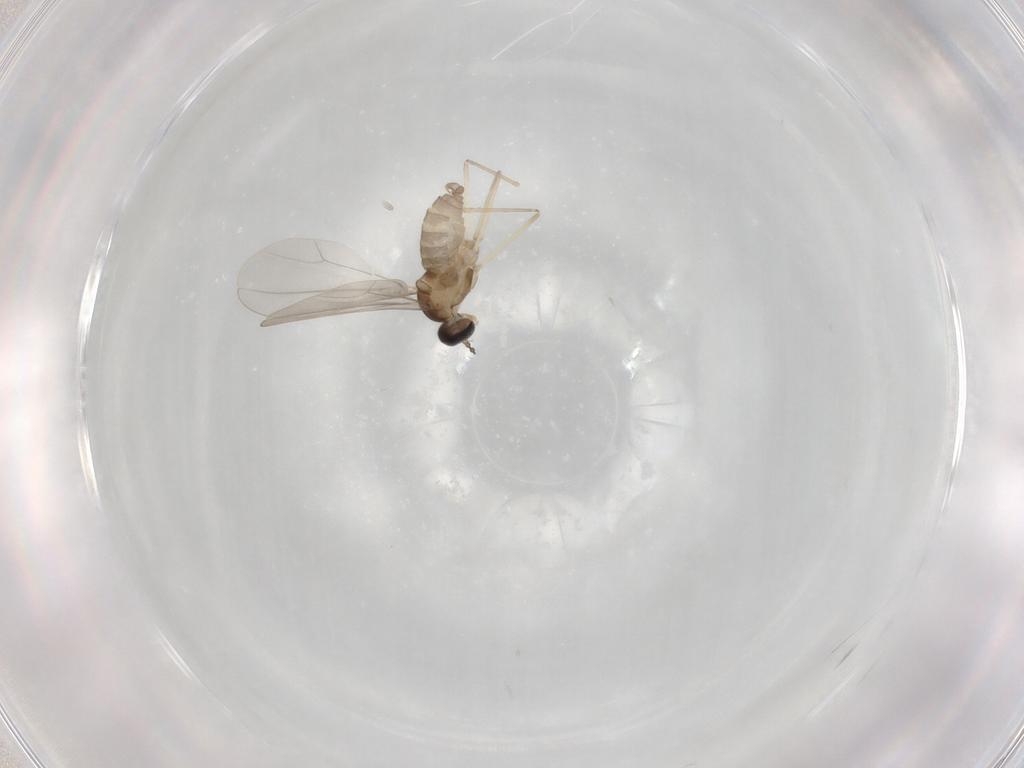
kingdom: Animalia
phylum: Arthropoda
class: Insecta
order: Diptera
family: Cecidomyiidae
